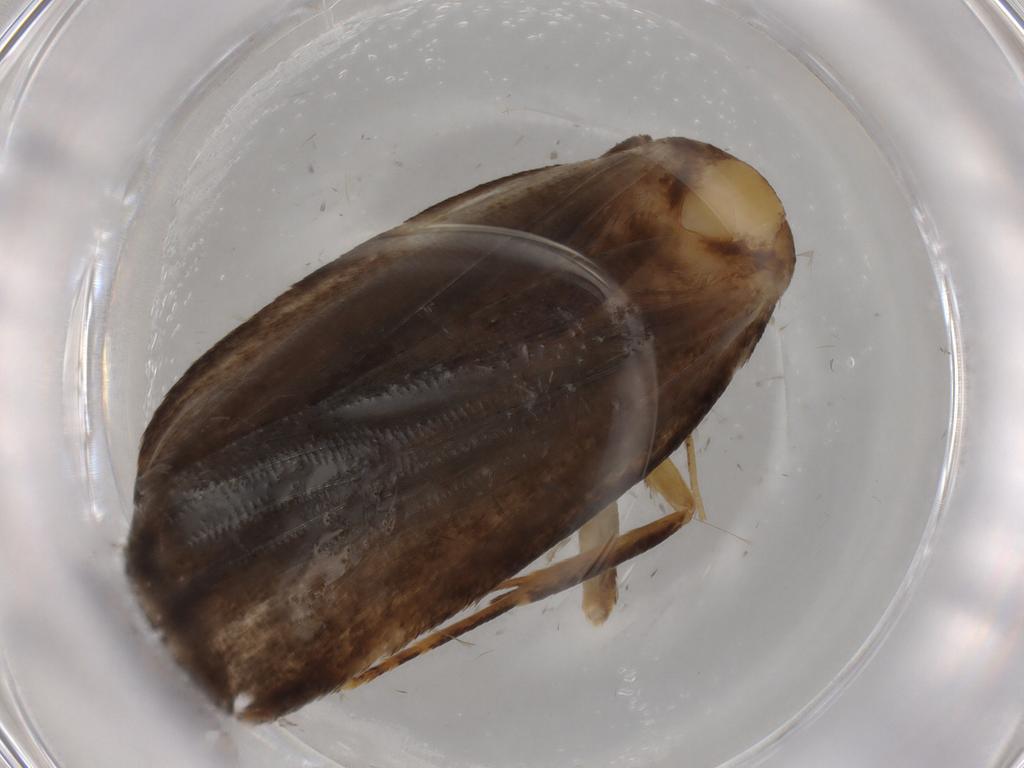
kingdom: Animalia
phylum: Arthropoda
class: Insecta
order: Lepidoptera
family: Autostichidae
